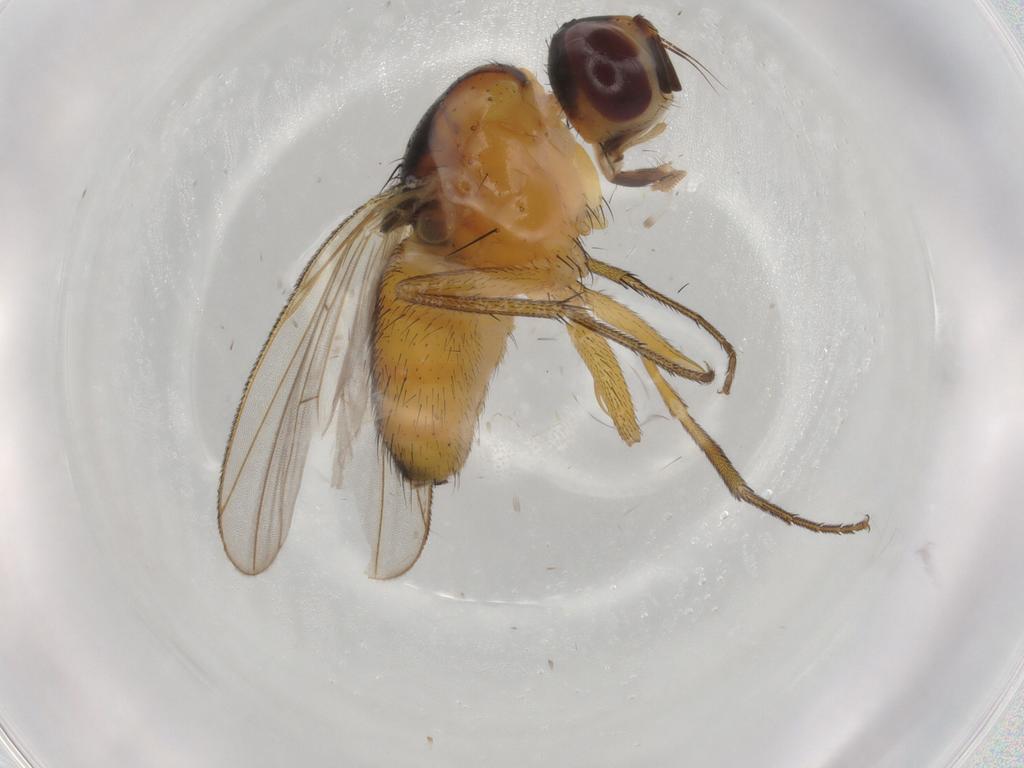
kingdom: Animalia
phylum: Arthropoda
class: Insecta
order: Diptera
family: Muscidae
